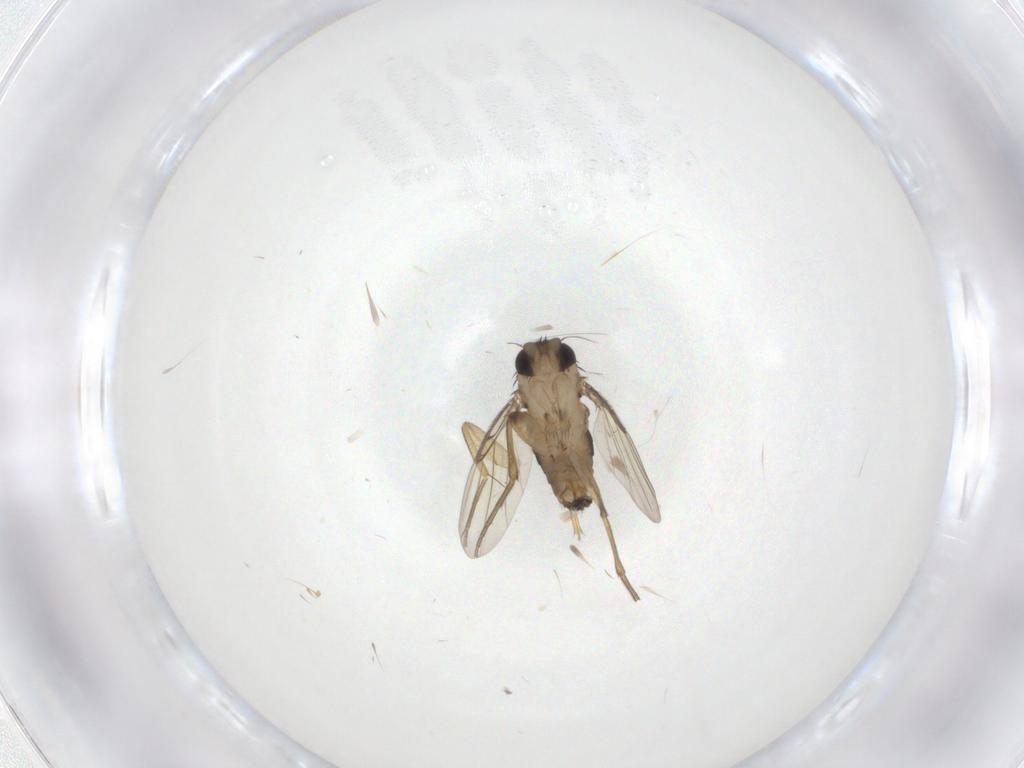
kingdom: Animalia
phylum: Arthropoda
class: Insecta
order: Diptera
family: Phoridae
